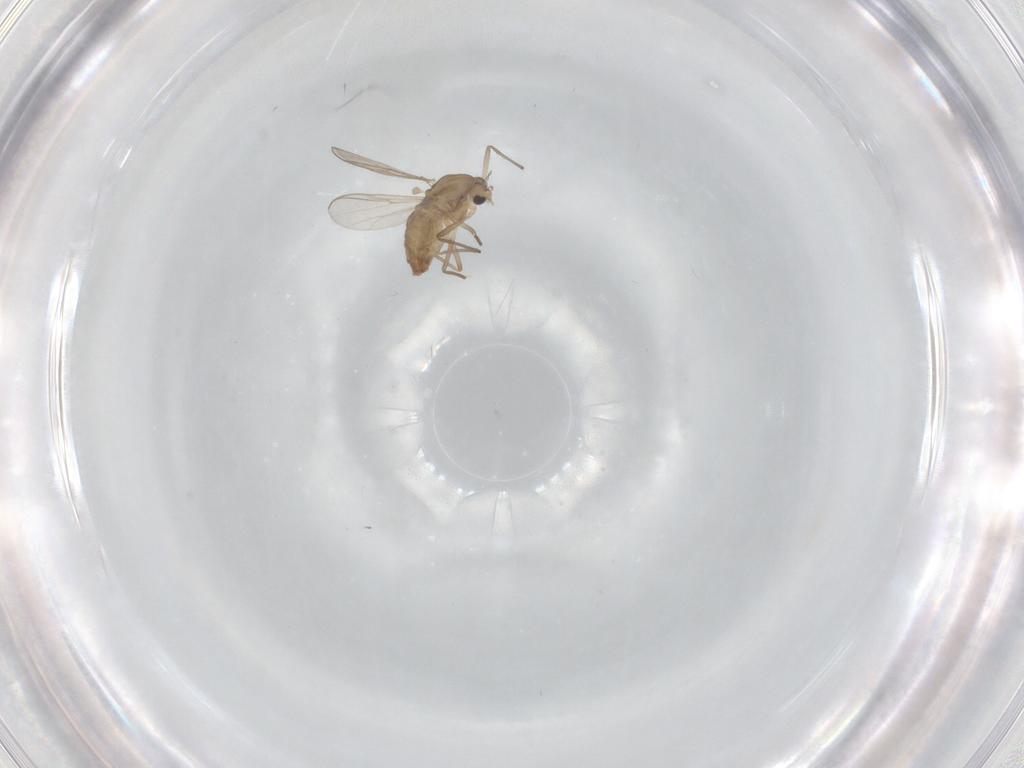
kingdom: Animalia
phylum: Arthropoda
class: Insecta
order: Diptera
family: Chironomidae
